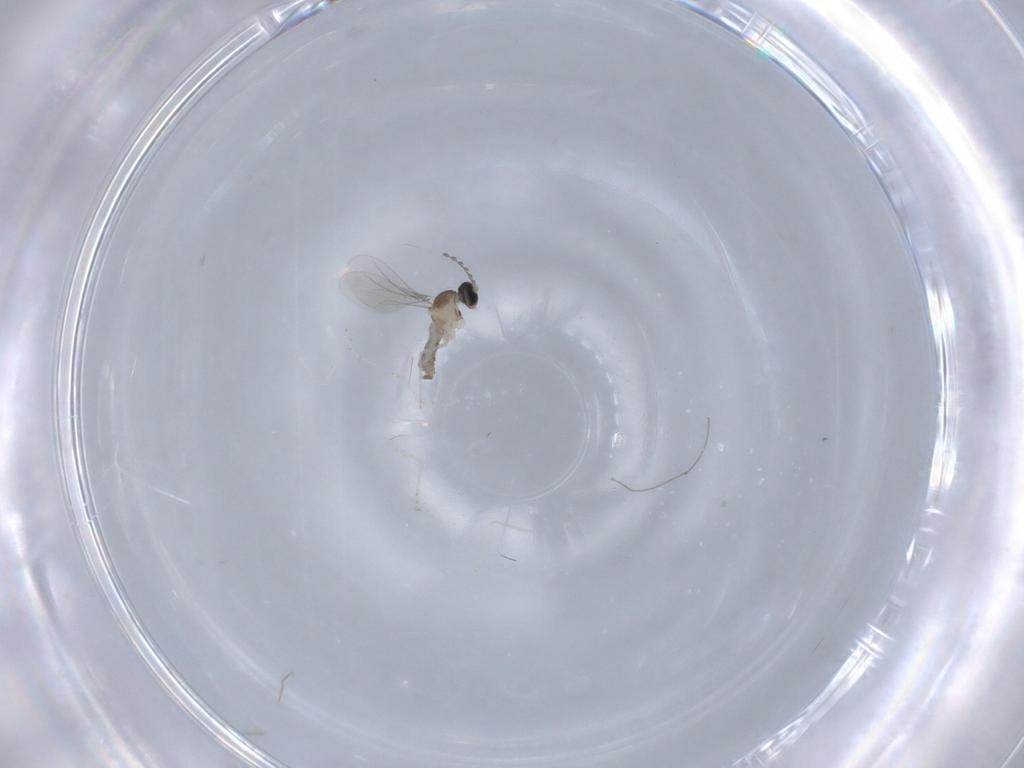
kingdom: Animalia
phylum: Arthropoda
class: Insecta
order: Diptera
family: Cecidomyiidae
